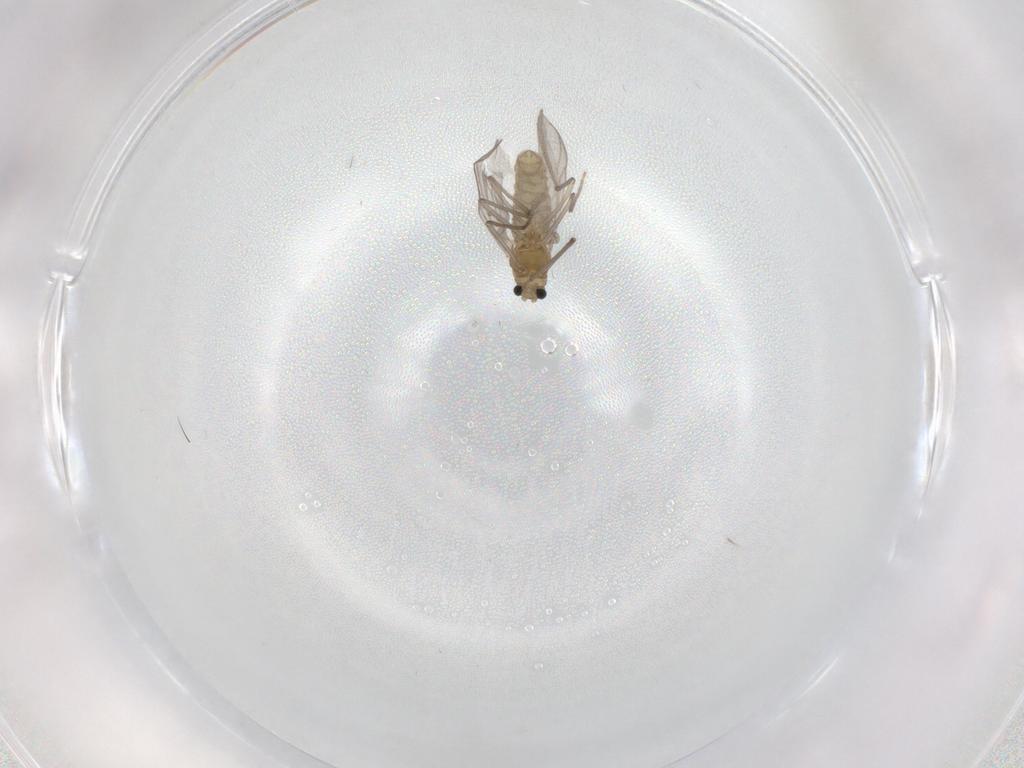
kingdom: Animalia
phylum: Arthropoda
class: Insecta
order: Diptera
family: Chironomidae
